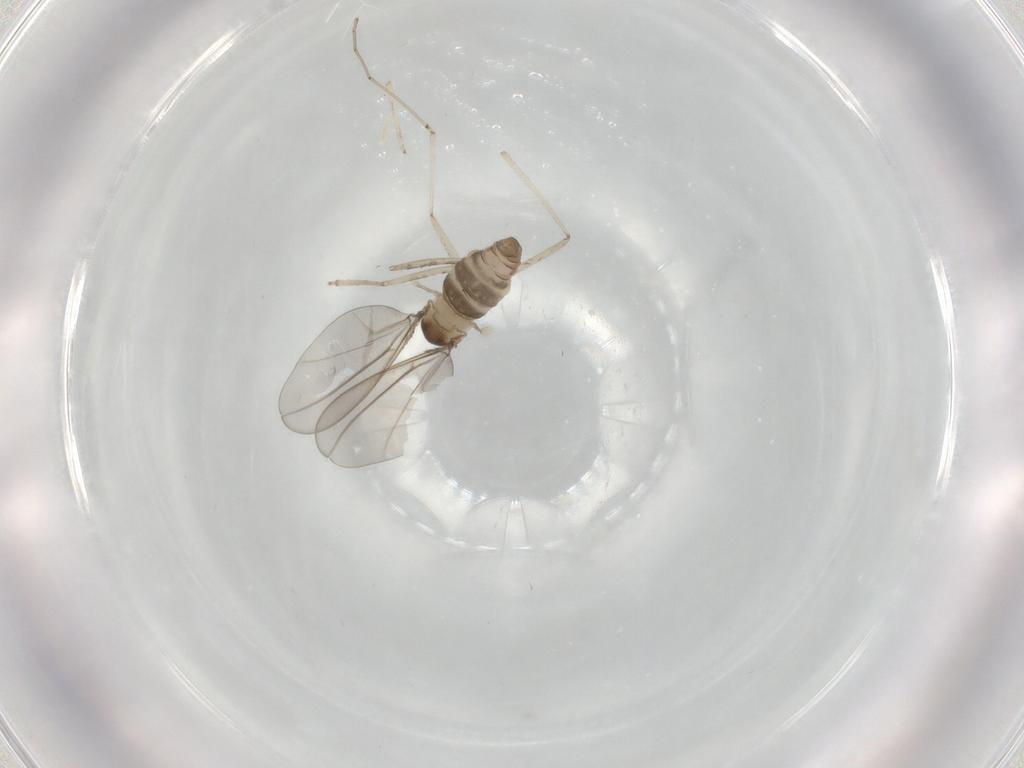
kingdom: Animalia
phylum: Arthropoda
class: Insecta
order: Diptera
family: Cecidomyiidae
